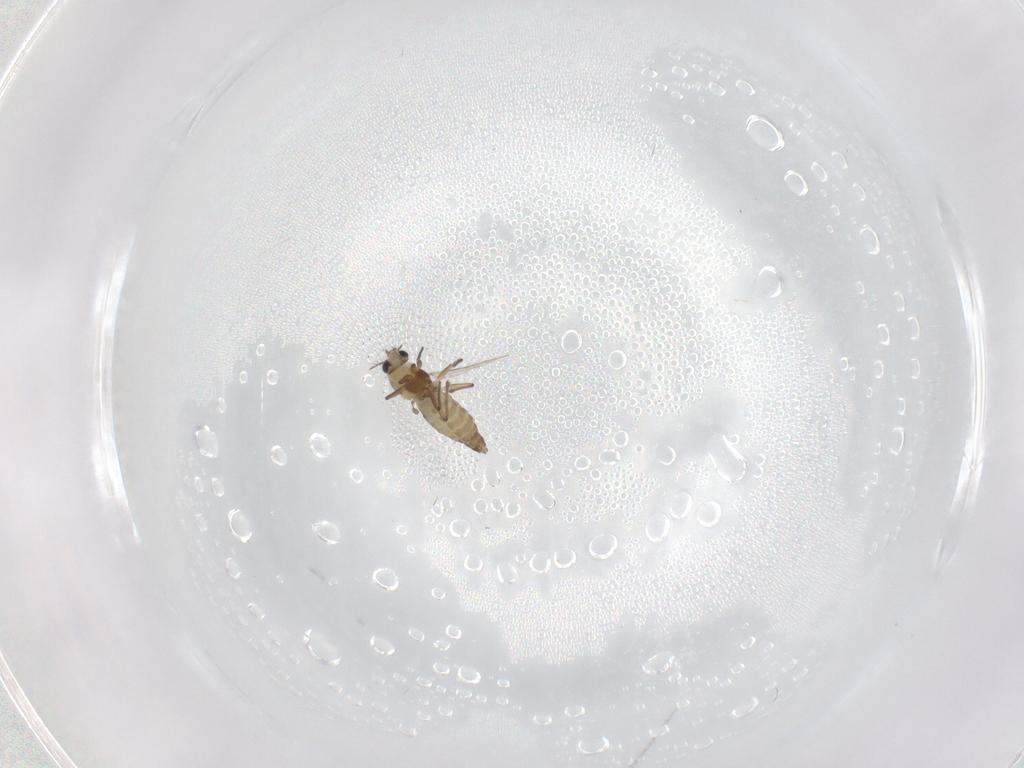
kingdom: Animalia
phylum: Arthropoda
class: Insecta
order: Diptera
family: Chironomidae
